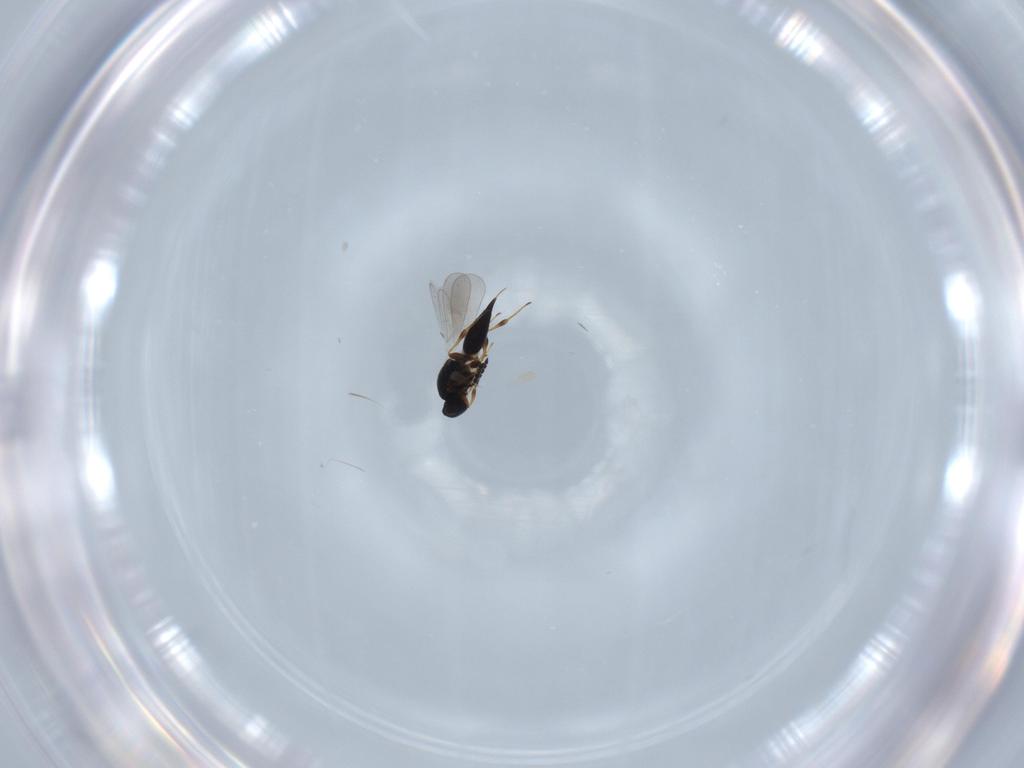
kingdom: Animalia
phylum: Arthropoda
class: Insecta
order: Hymenoptera
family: Platygastridae
